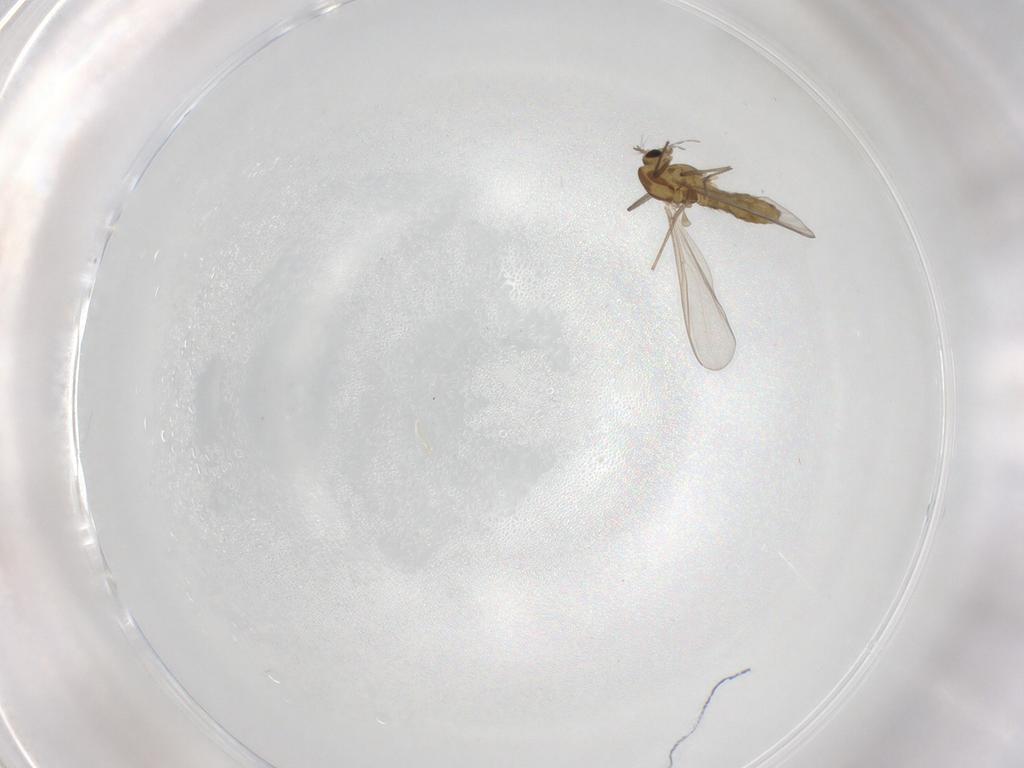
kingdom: Animalia
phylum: Arthropoda
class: Insecta
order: Diptera
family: Chironomidae
